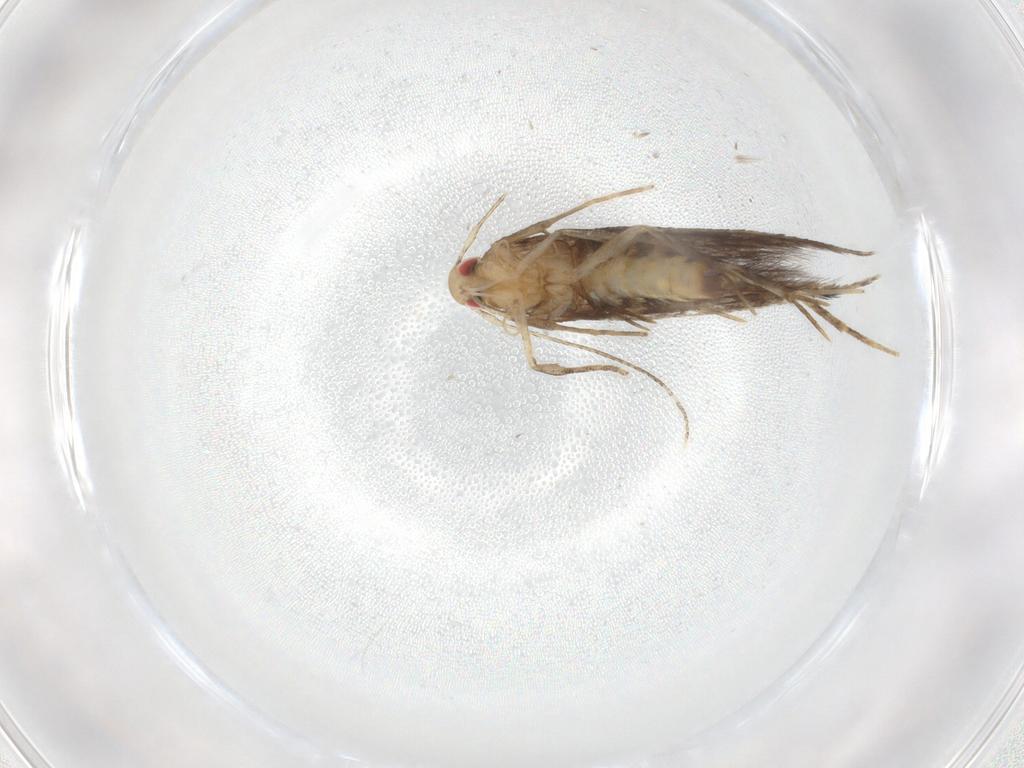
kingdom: Animalia
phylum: Arthropoda
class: Insecta
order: Lepidoptera
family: Cosmopterigidae
